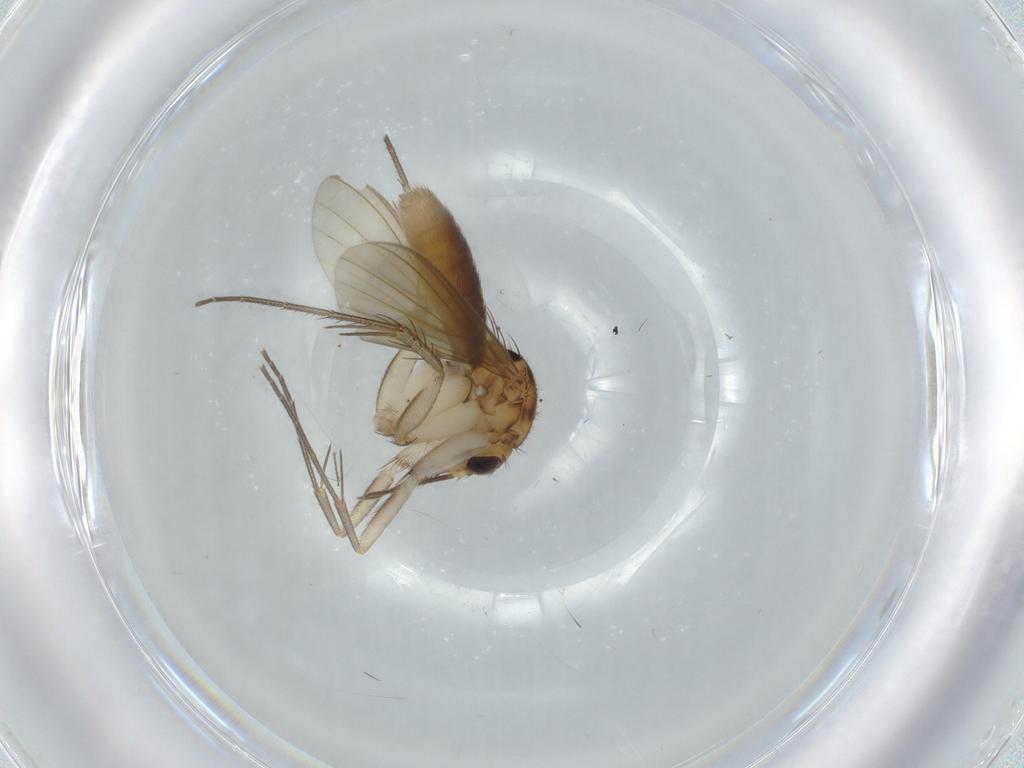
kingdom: Animalia
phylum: Arthropoda
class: Insecta
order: Diptera
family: Mycetophilidae
